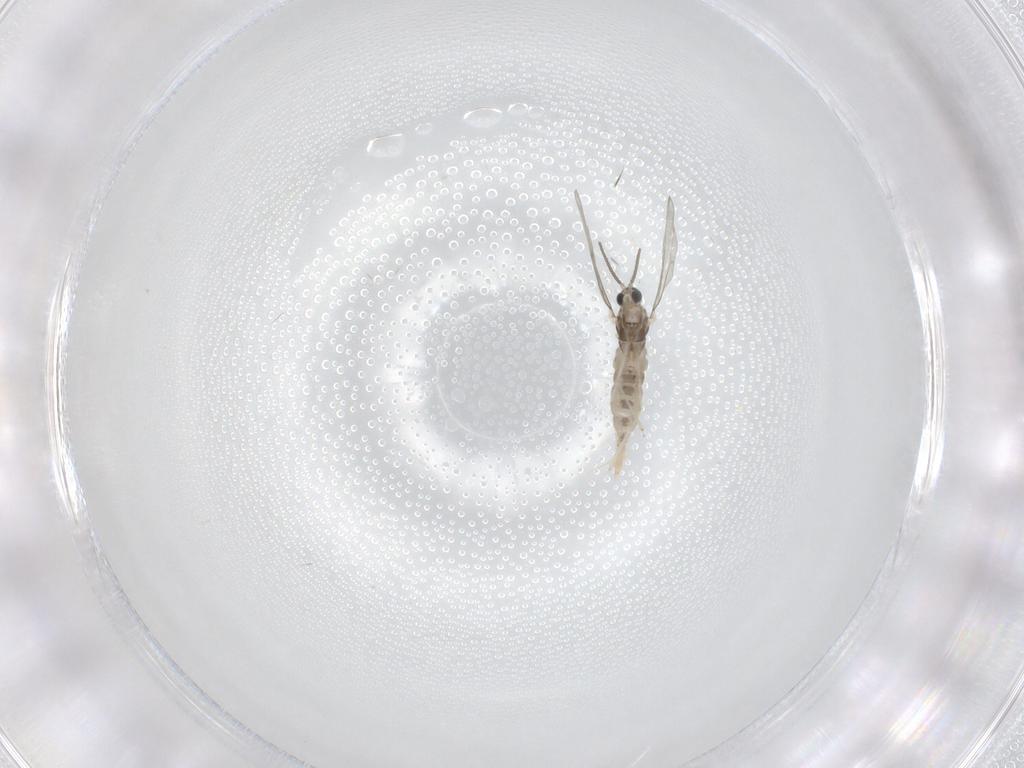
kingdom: Animalia
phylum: Arthropoda
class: Insecta
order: Diptera
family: Cecidomyiidae
